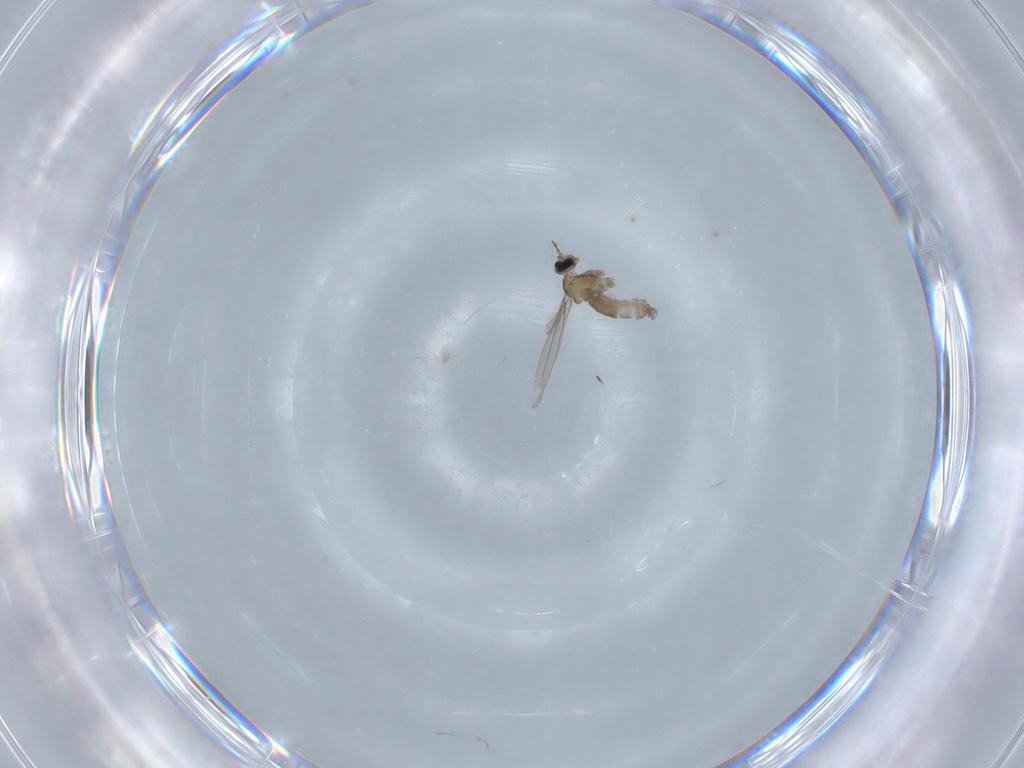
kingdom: Animalia
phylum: Arthropoda
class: Insecta
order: Diptera
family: Cecidomyiidae
